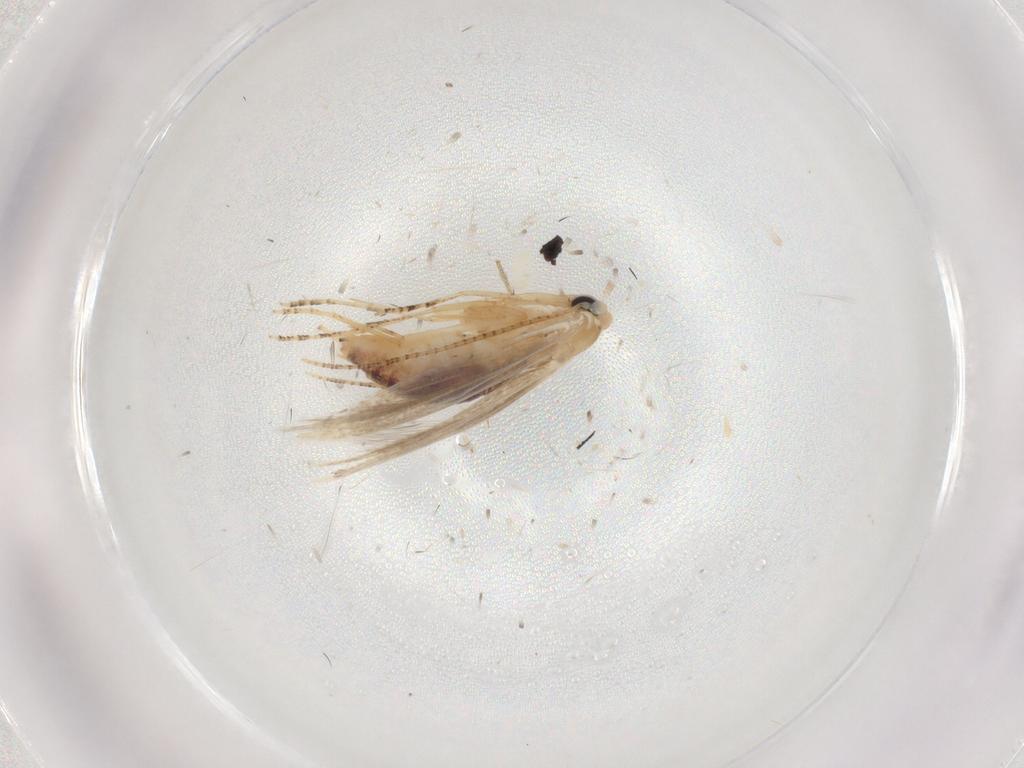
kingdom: Animalia
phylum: Arthropoda
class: Insecta
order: Lepidoptera
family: Bucculatricidae
